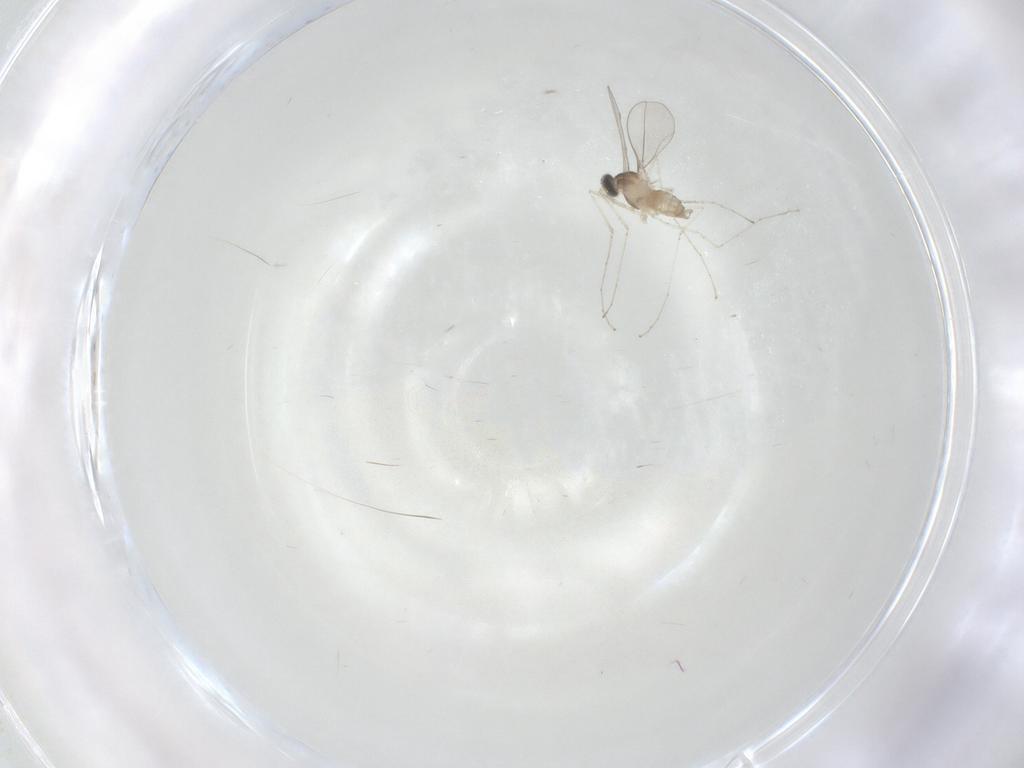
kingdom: Animalia
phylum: Arthropoda
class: Insecta
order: Diptera
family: Cecidomyiidae
